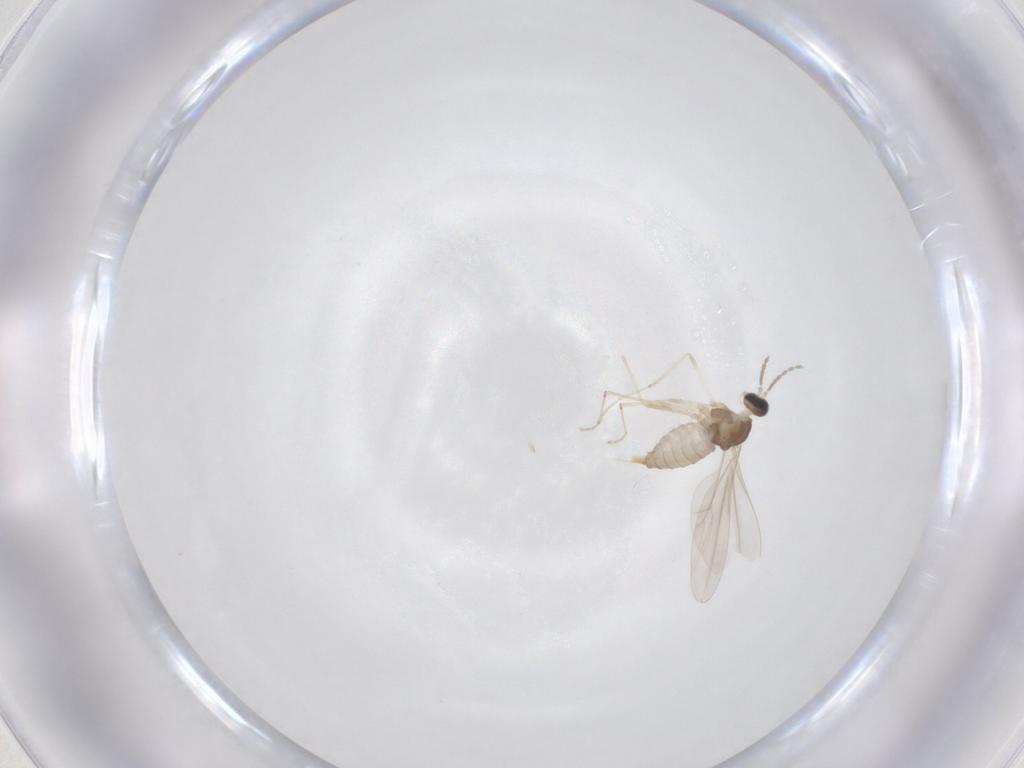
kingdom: Animalia
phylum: Arthropoda
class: Insecta
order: Diptera
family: Cecidomyiidae
